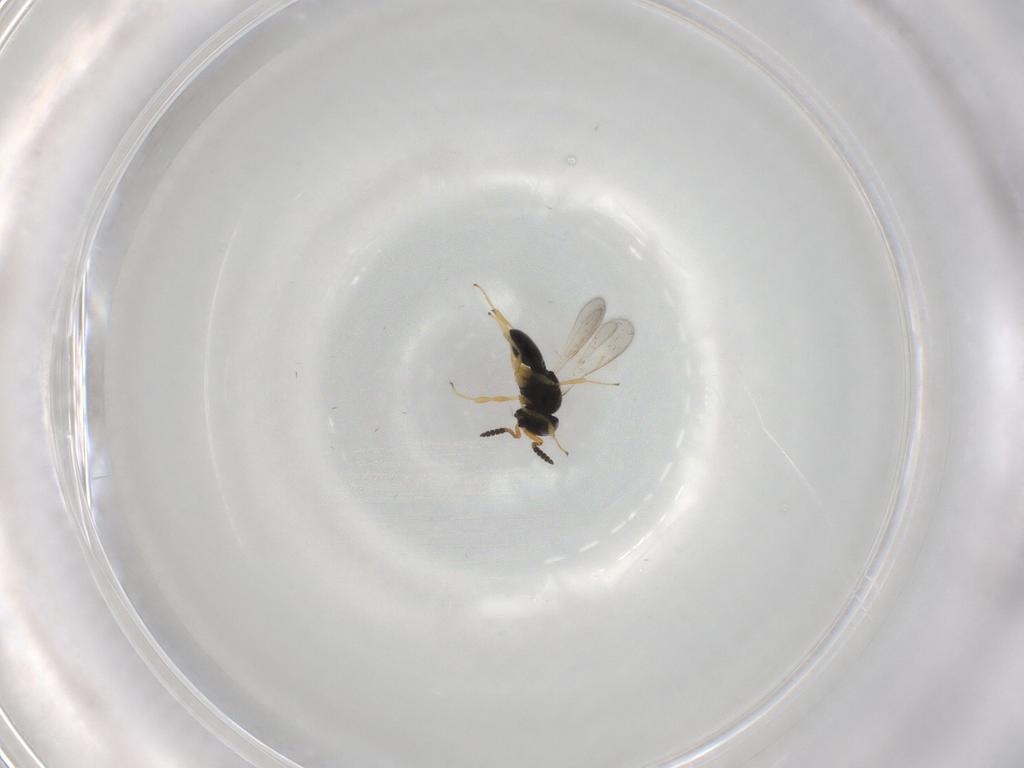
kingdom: Animalia
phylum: Arthropoda
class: Insecta
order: Hymenoptera
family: Scelionidae
